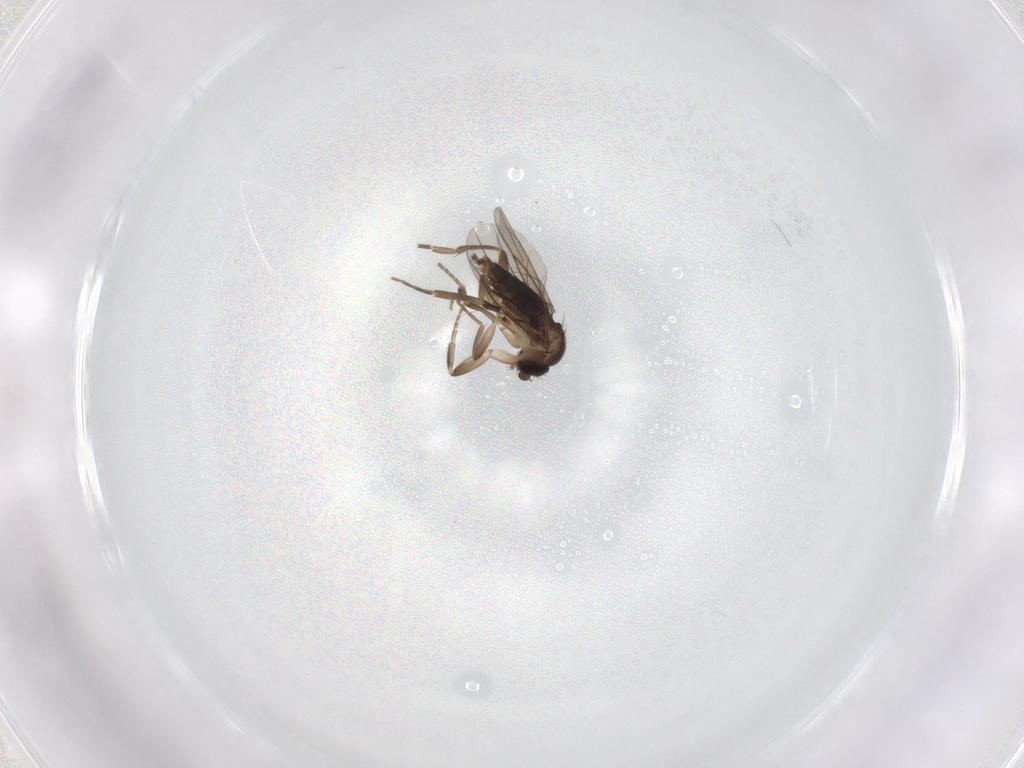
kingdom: Animalia
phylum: Arthropoda
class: Insecta
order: Diptera
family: Phoridae
